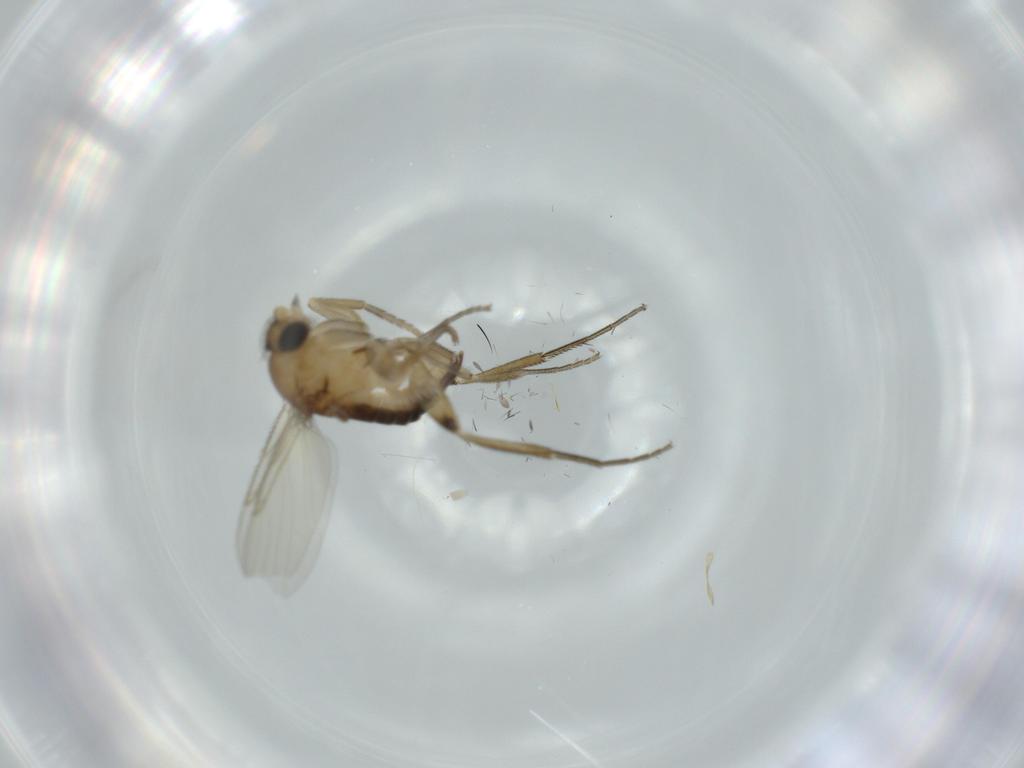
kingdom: Animalia
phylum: Arthropoda
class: Insecta
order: Diptera
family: Phoridae
